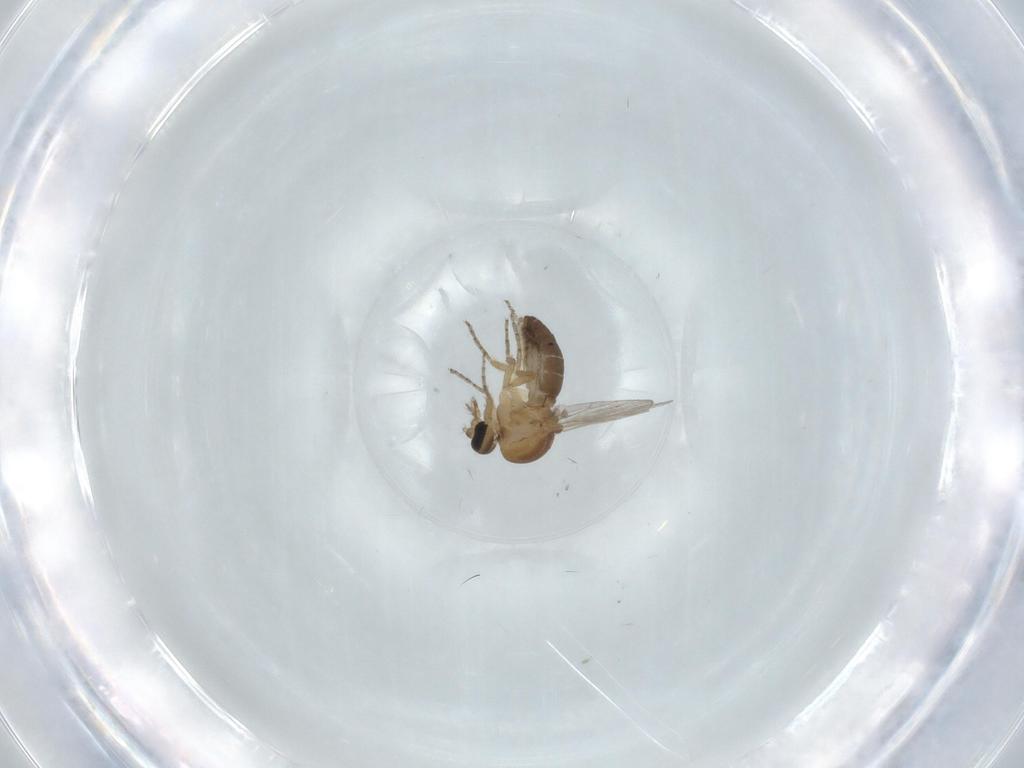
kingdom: Animalia
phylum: Arthropoda
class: Insecta
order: Diptera
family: Ceratopogonidae
